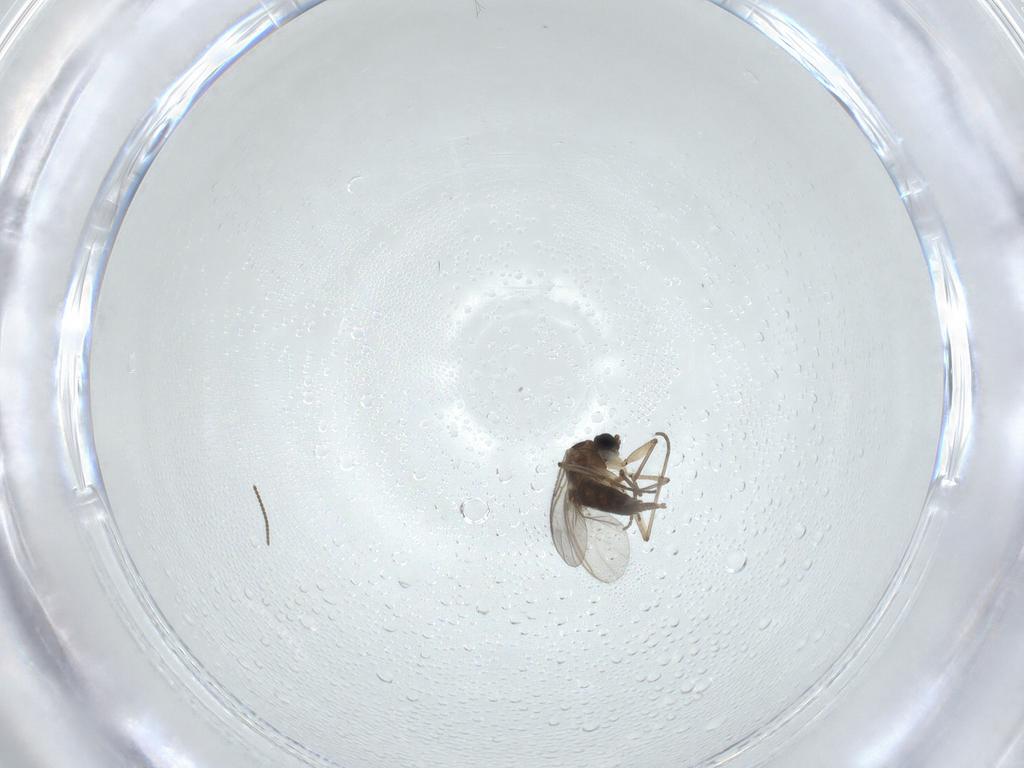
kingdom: Animalia
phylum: Arthropoda
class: Insecta
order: Diptera
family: Sciaridae
